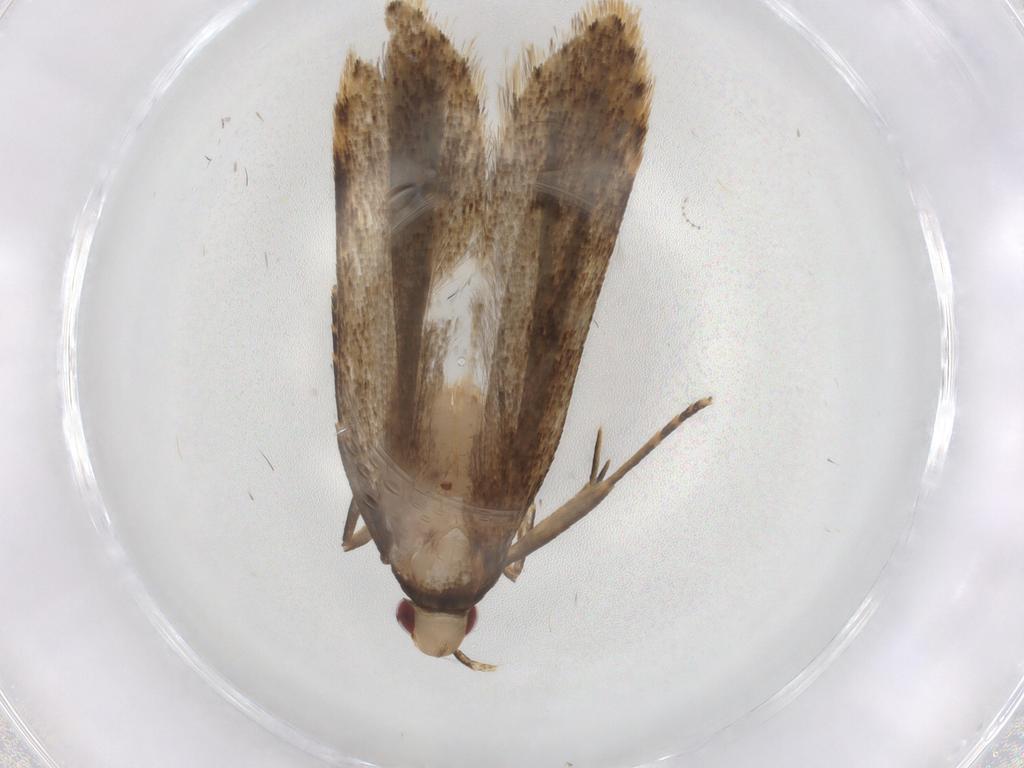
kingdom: Animalia
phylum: Arthropoda
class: Insecta
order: Lepidoptera
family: Gelechiidae
